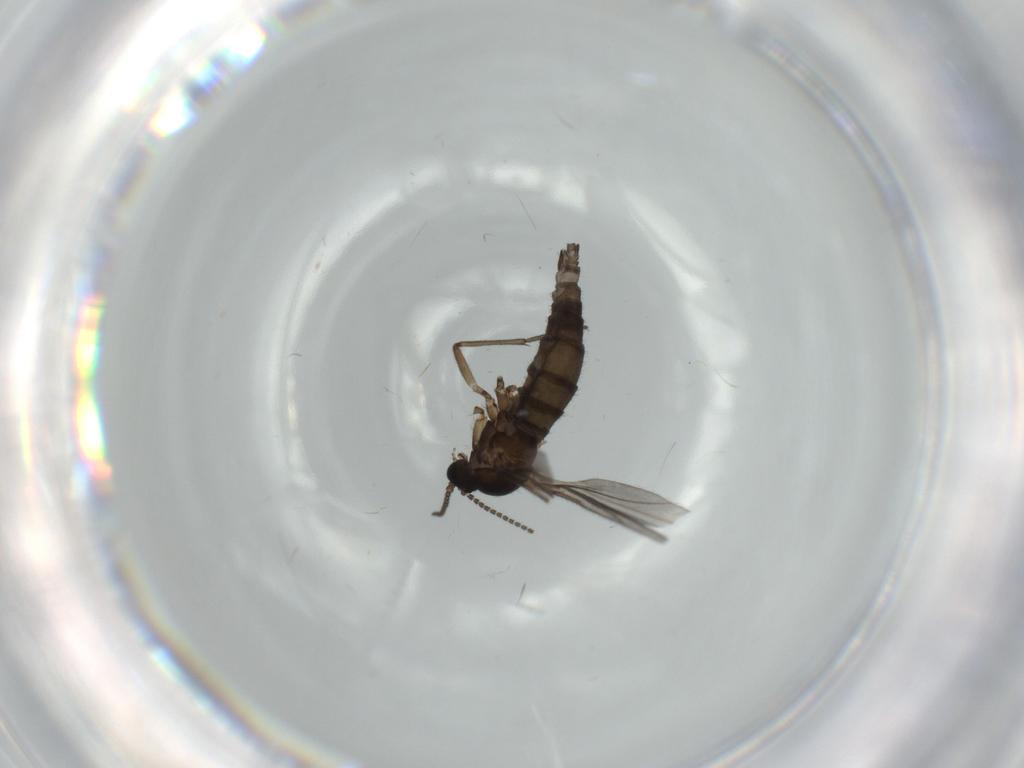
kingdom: Animalia
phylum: Arthropoda
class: Insecta
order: Diptera
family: Sciaridae
